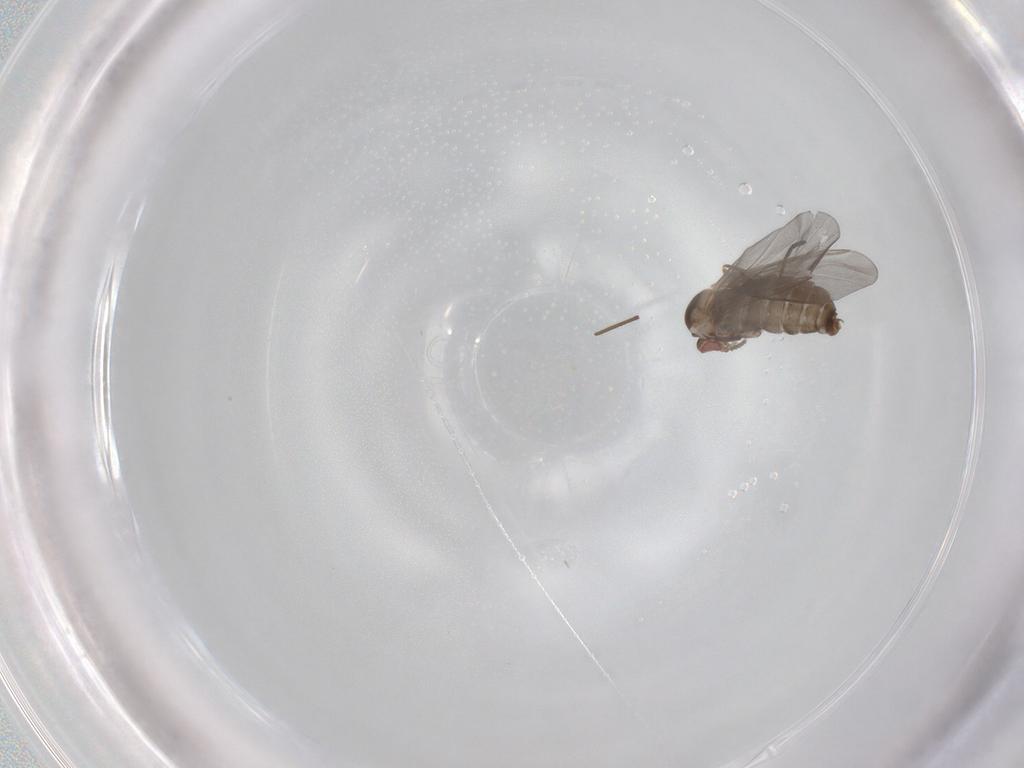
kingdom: Animalia
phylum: Arthropoda
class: Insecta
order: Diptera
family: Cecidomyiidae
